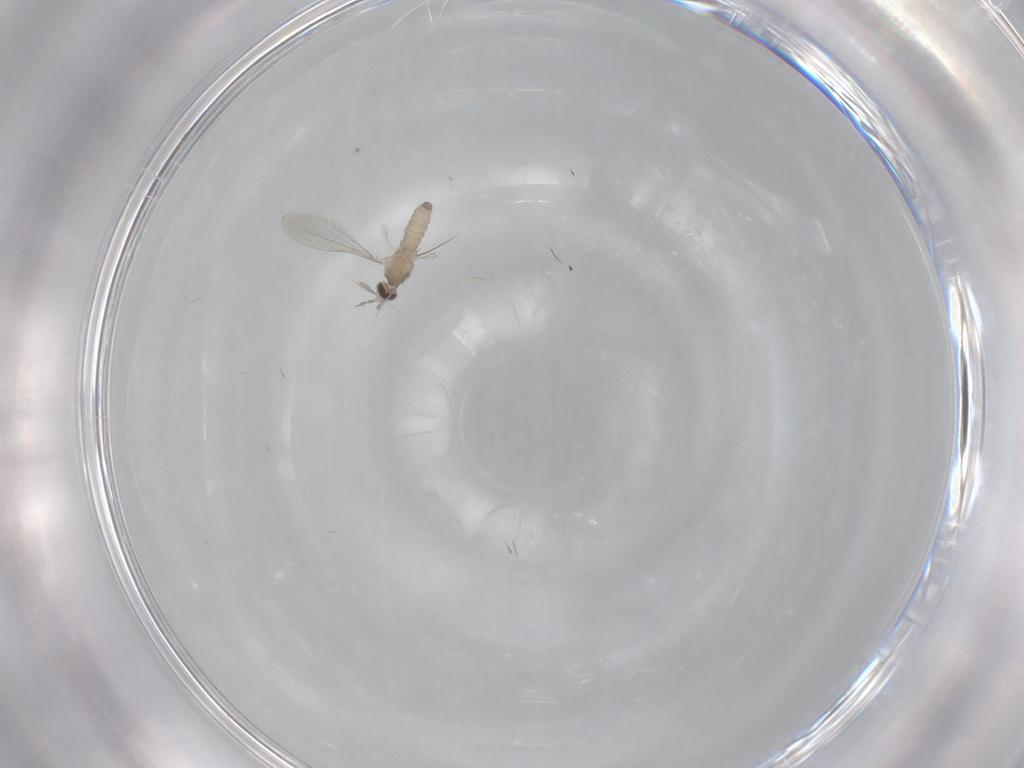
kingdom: Animalia
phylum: Arthropoda
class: Insecta
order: Diptera
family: Cecidomyiidae
